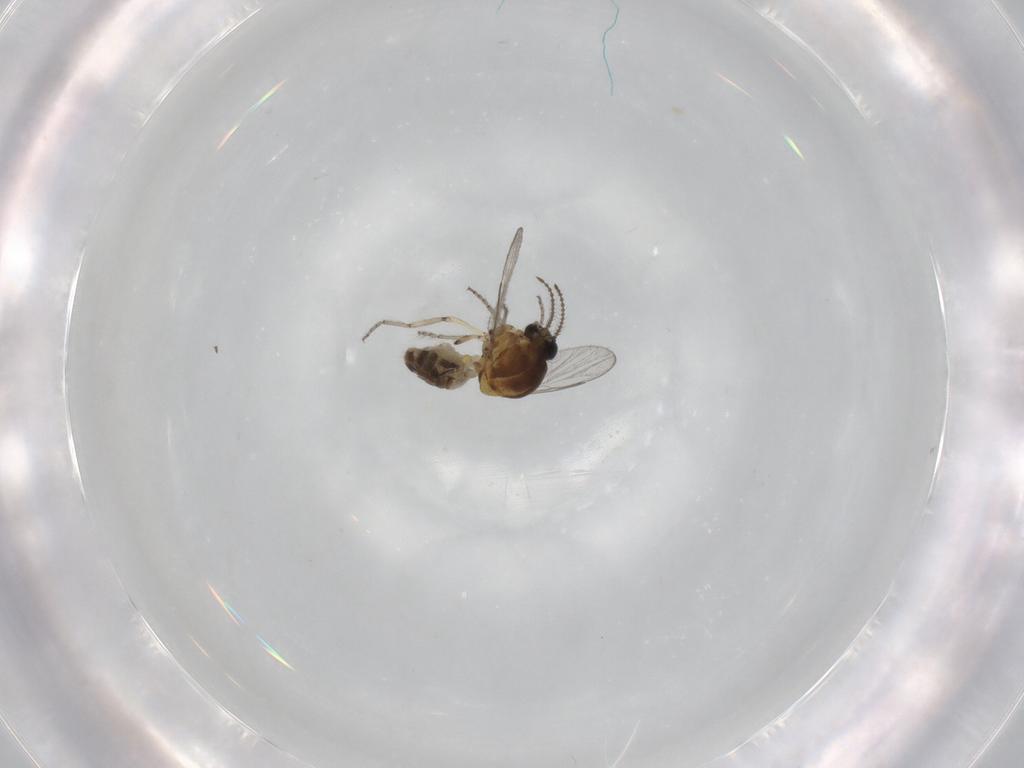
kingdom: Animalia
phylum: Arthropoda
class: Insecta
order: Diptera
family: Ceratopogonidae
